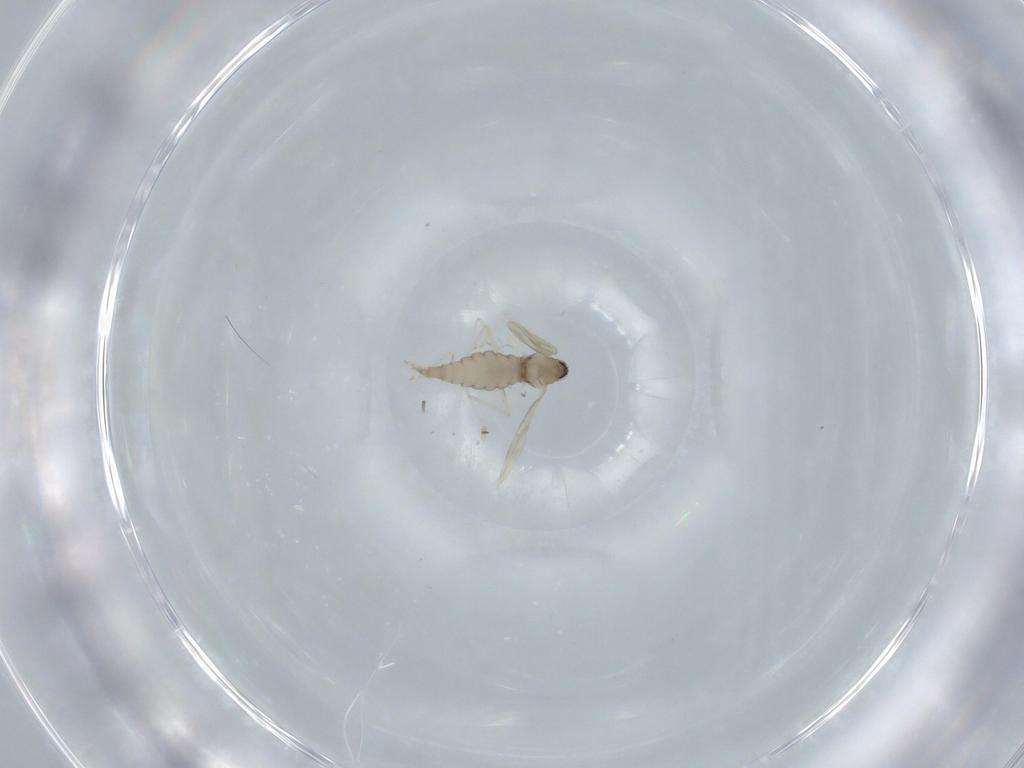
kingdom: Animalia
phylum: Arthropoda
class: Insecta
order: Diptera
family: Cecidomyiidae
